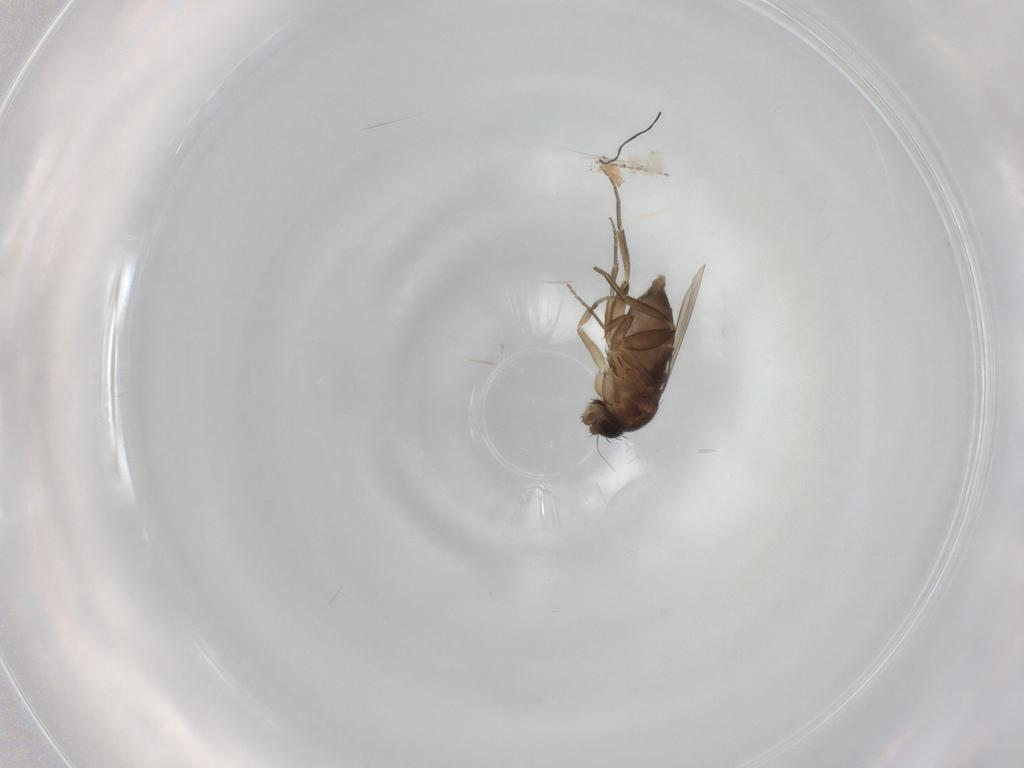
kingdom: Animalia
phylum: Arthropoda
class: Insecta
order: Diptera
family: Phoridae
